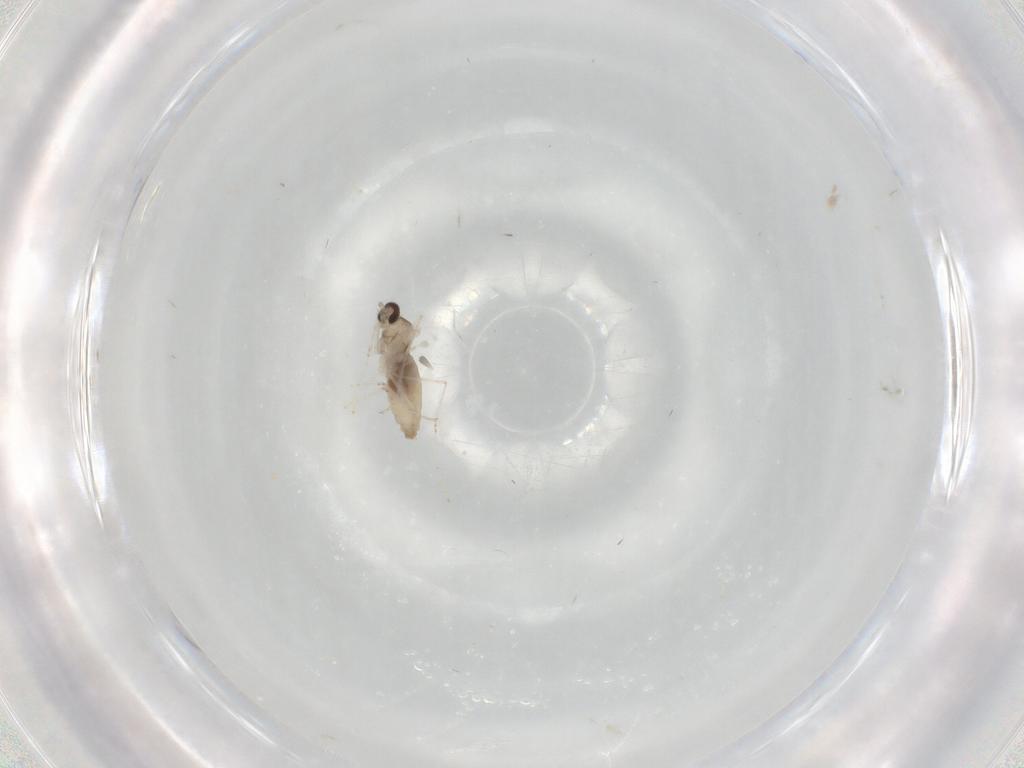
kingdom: Animalia
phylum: Arthropoda
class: Insecta
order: Diptera
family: Cecidomyiidae
